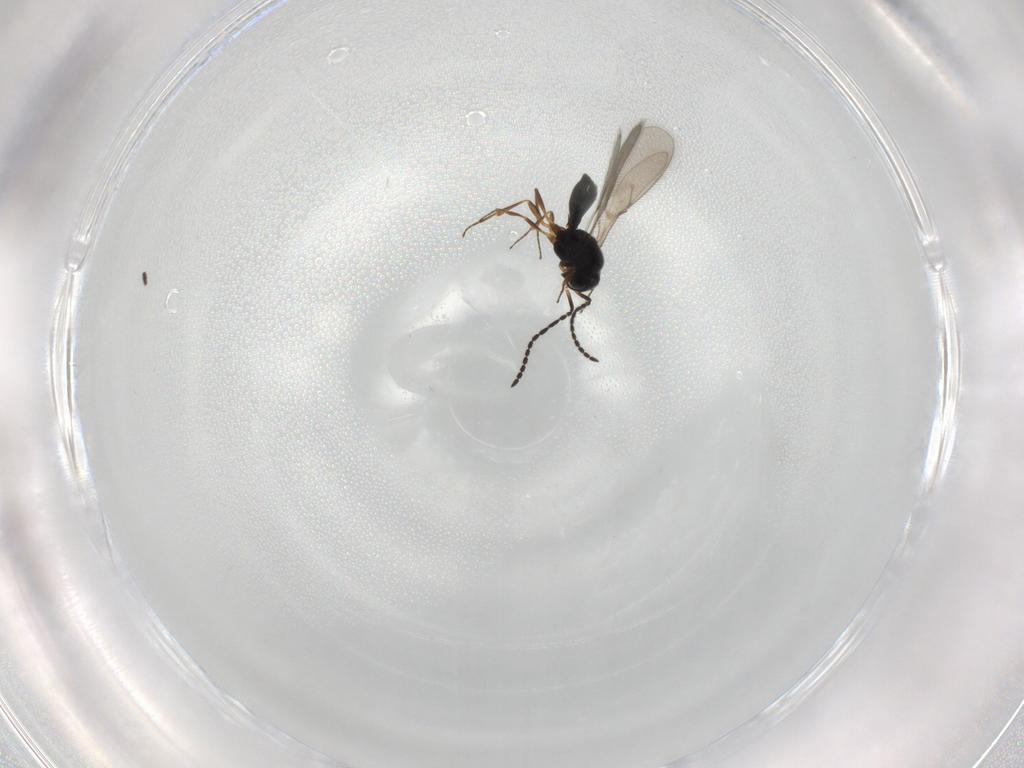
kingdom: Animalia
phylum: Arthropoda
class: Insecta
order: Hymenoptera
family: Scelionidae
